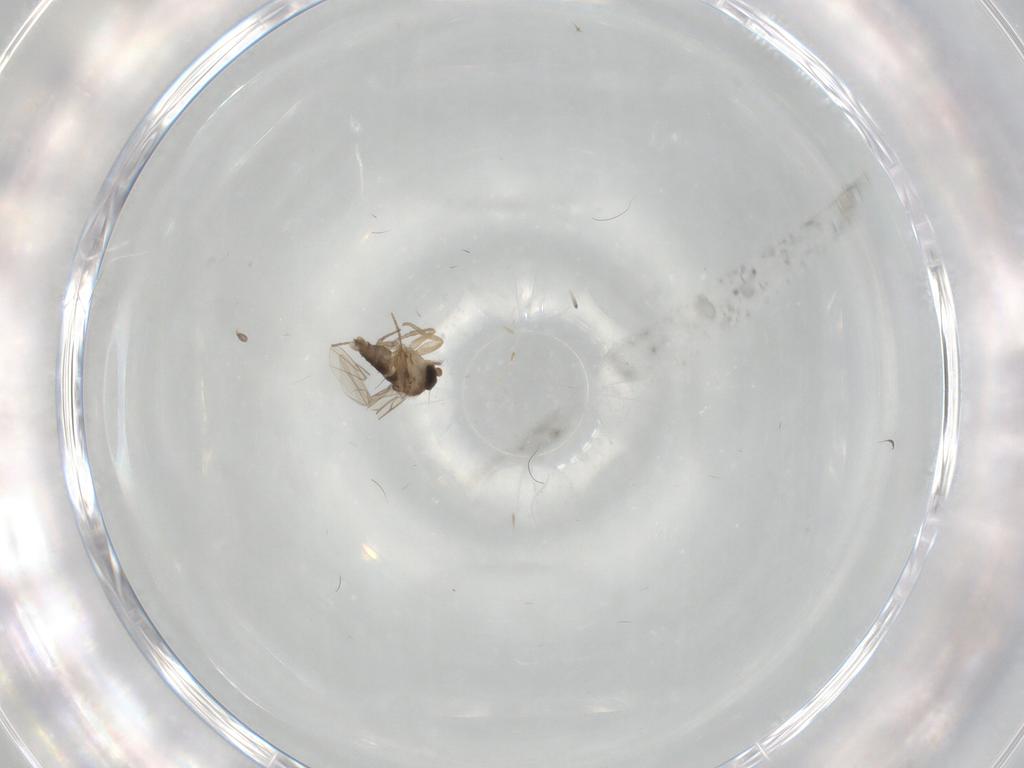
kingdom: Animalia
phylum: Arthropoda
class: Insecta
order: Diptera
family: Phoridae
